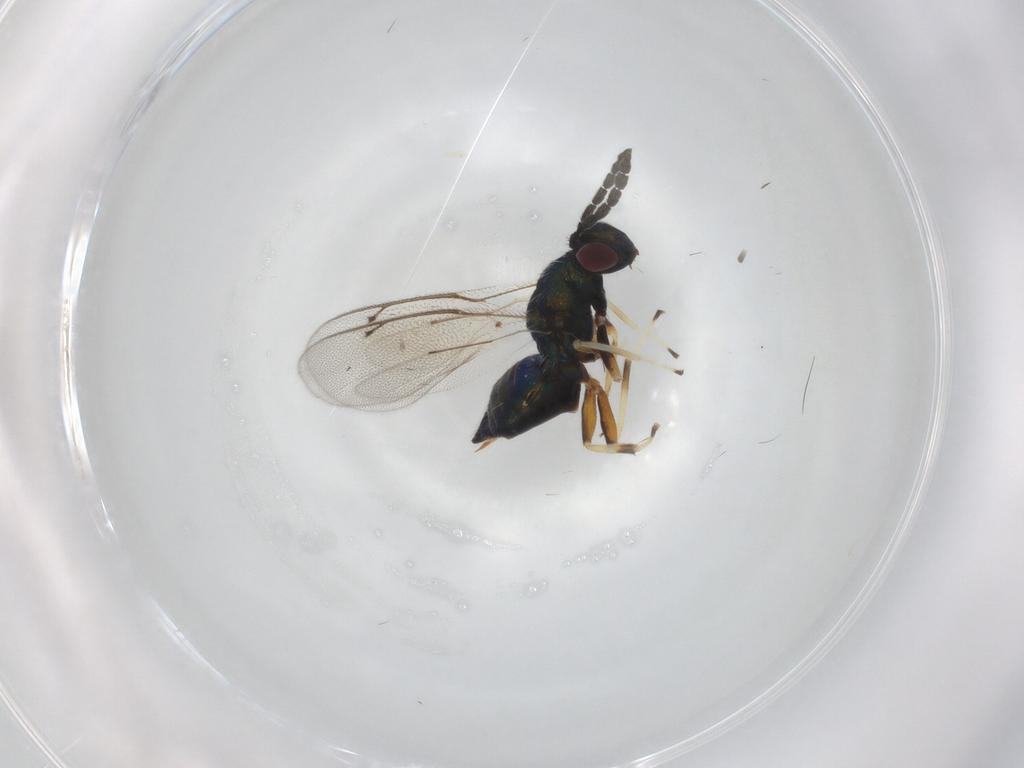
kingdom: Animalia
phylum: Arthropoda
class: Insecta
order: Hymenoptera
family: Eulophidae
